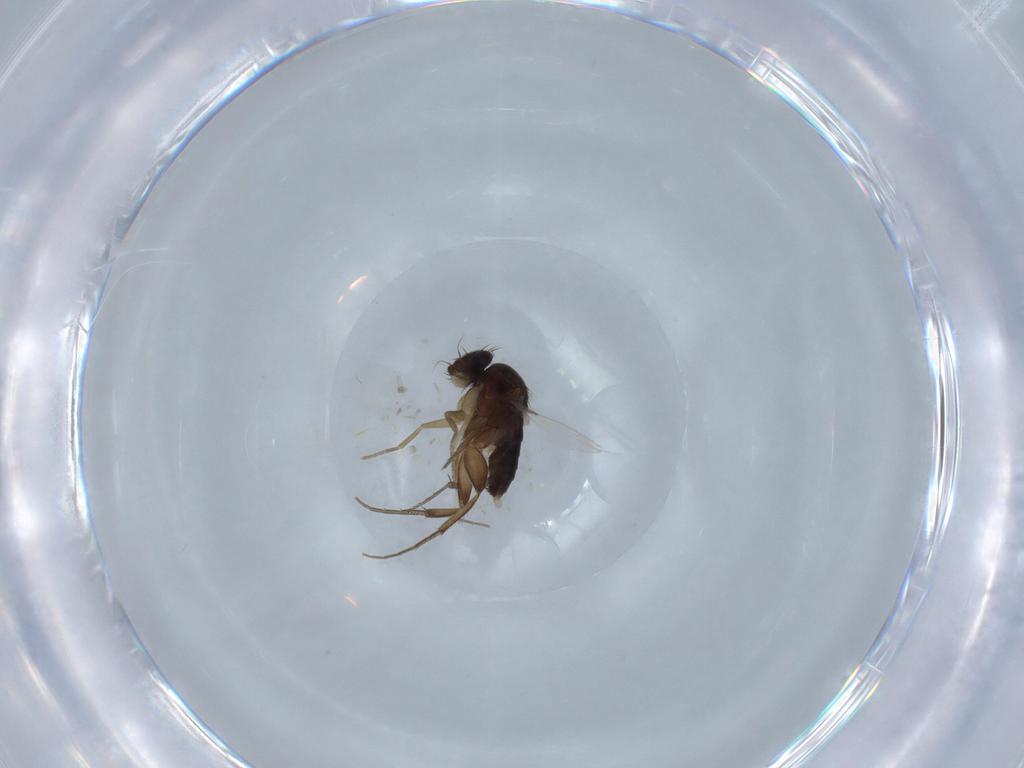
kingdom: Animalia
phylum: Arthropoda
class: Insecta
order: Diptera
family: Phoridae
